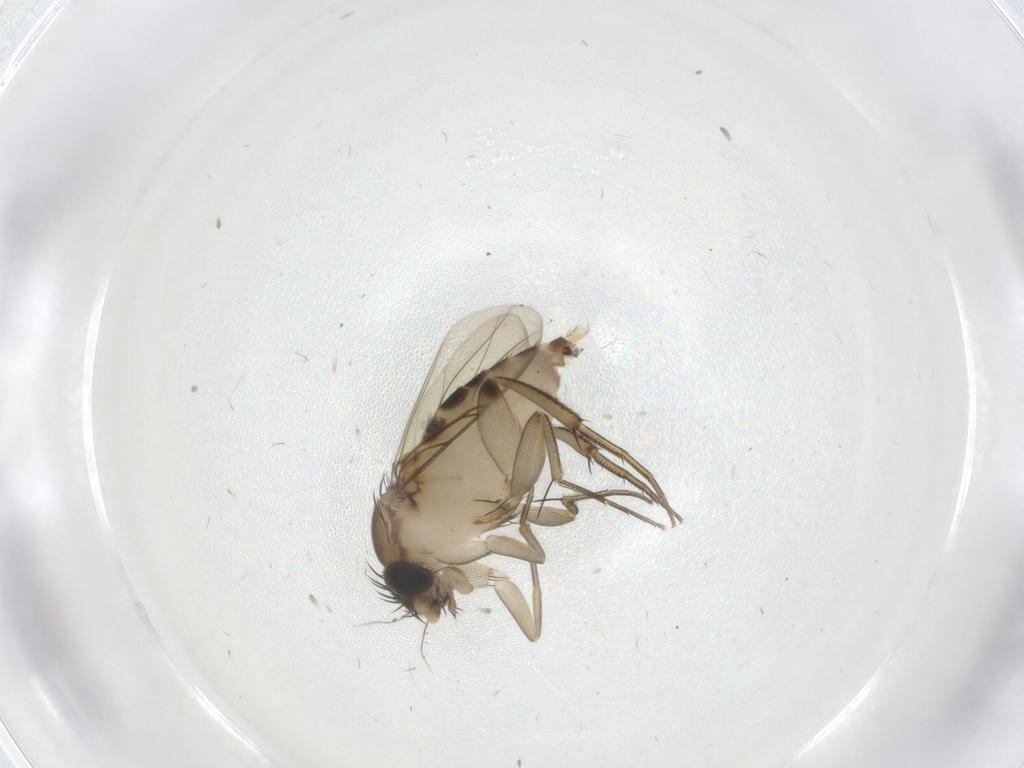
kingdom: Animalia
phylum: Arthropoda
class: Insecta
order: Diptera
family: Phoridae
